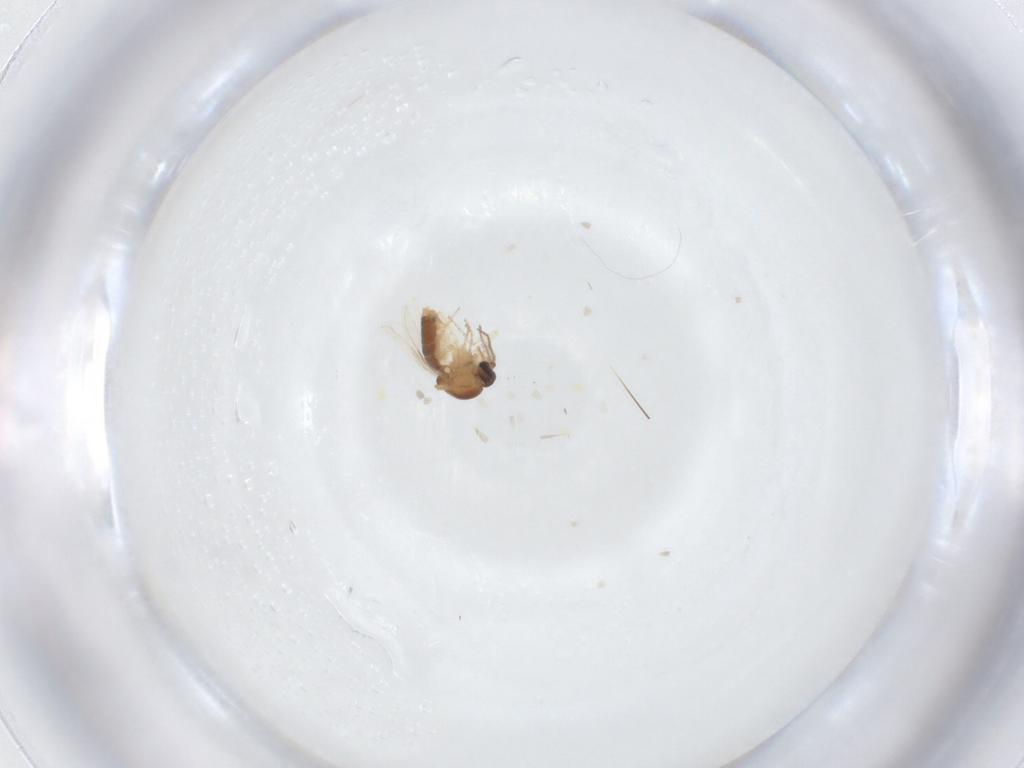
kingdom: Animalia
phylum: Arthropoda
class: Insecta
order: Diptera
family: Ceratopogonidae
